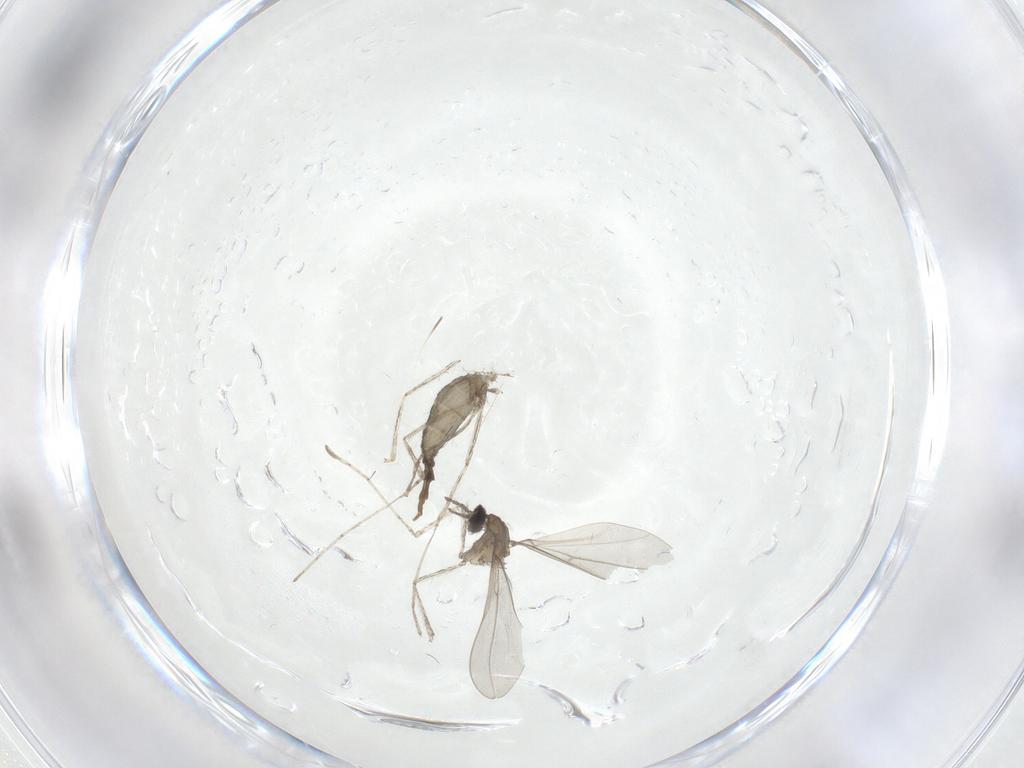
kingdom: Animalia
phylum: Arthropoda
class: Insecta
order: Diptera
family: Cecidomyiidae
